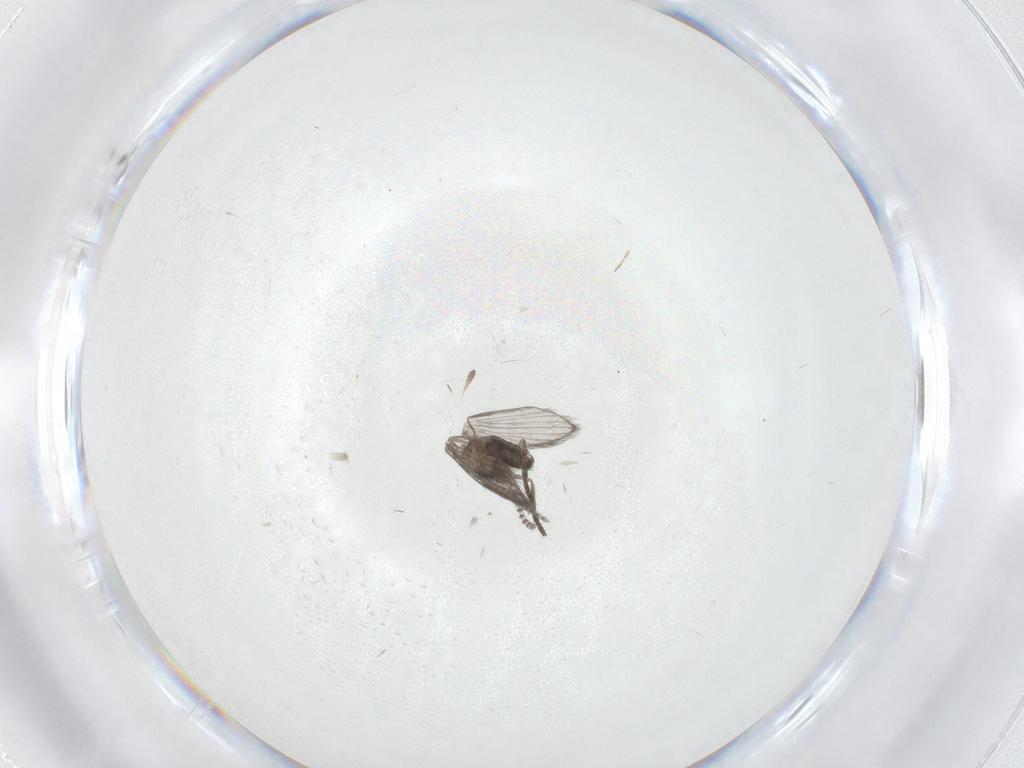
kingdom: Animalia
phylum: Arthropoda
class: Insecta
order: Diptera
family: Psychodidae
